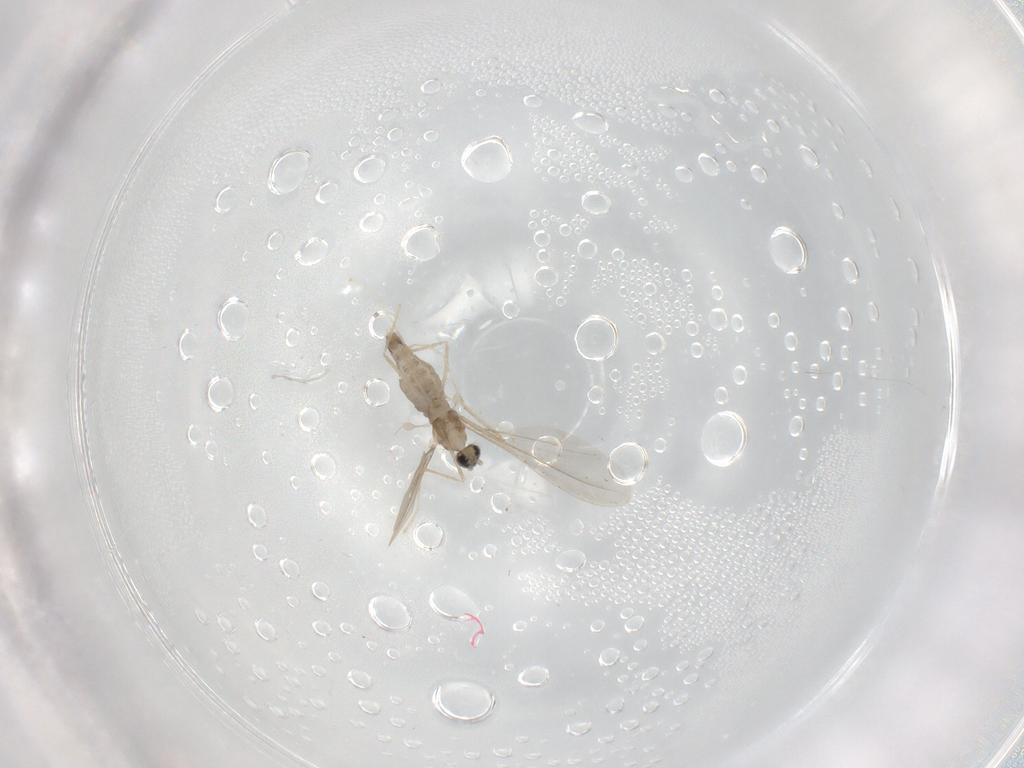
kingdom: Animalia
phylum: Arthropoda
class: Insecta
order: Diptera
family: Cecidomyiidae
